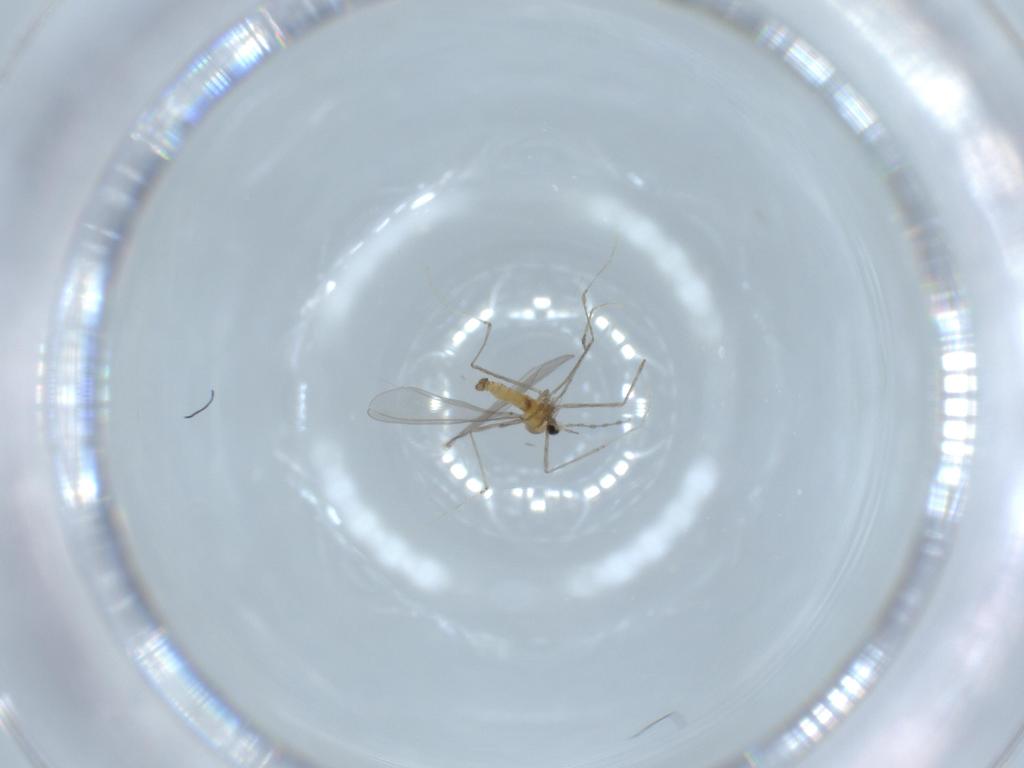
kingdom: Animalia
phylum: Arthropoda
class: Insecta
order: Diptera
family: Cecidomyiidae
